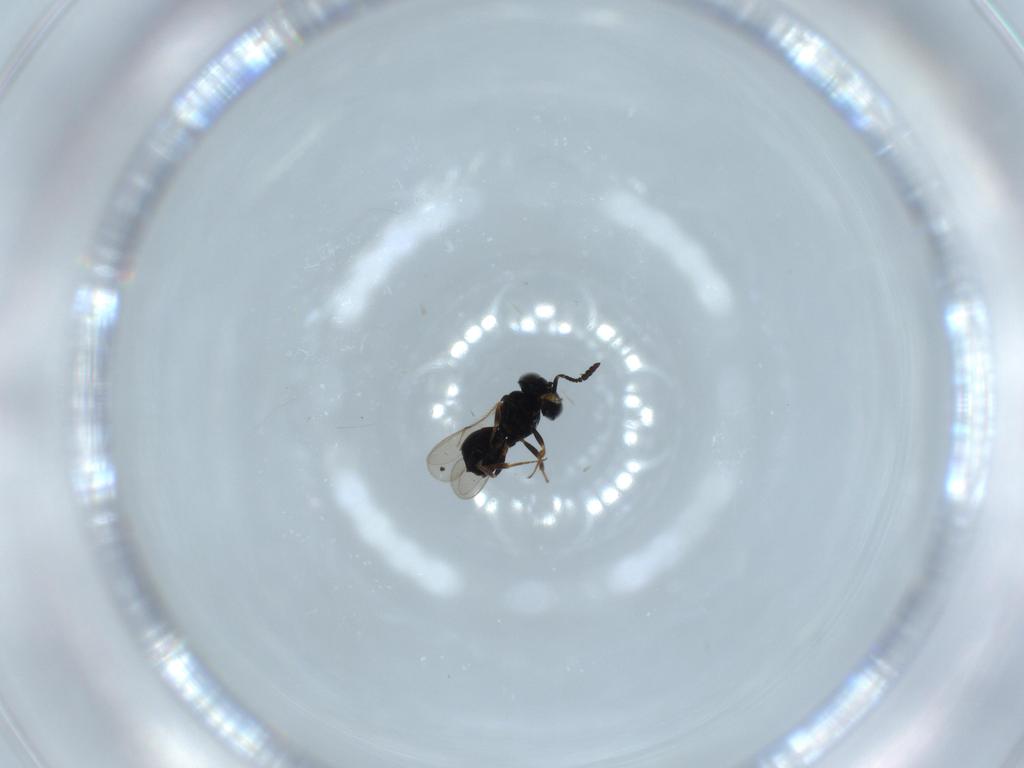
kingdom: Animalia
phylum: Arthropoda
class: Insecta
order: Hymenoptera
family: Scelionidae
